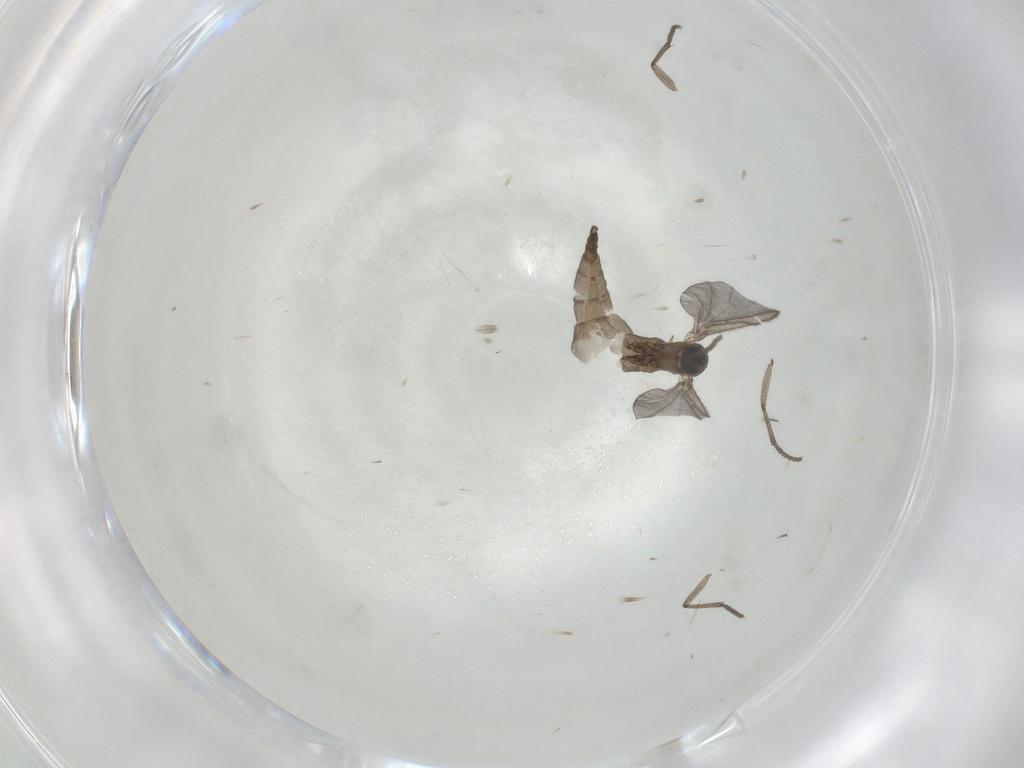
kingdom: Animalia
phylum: Arthropoda
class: Insecta
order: Diptera
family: Sciaridae
